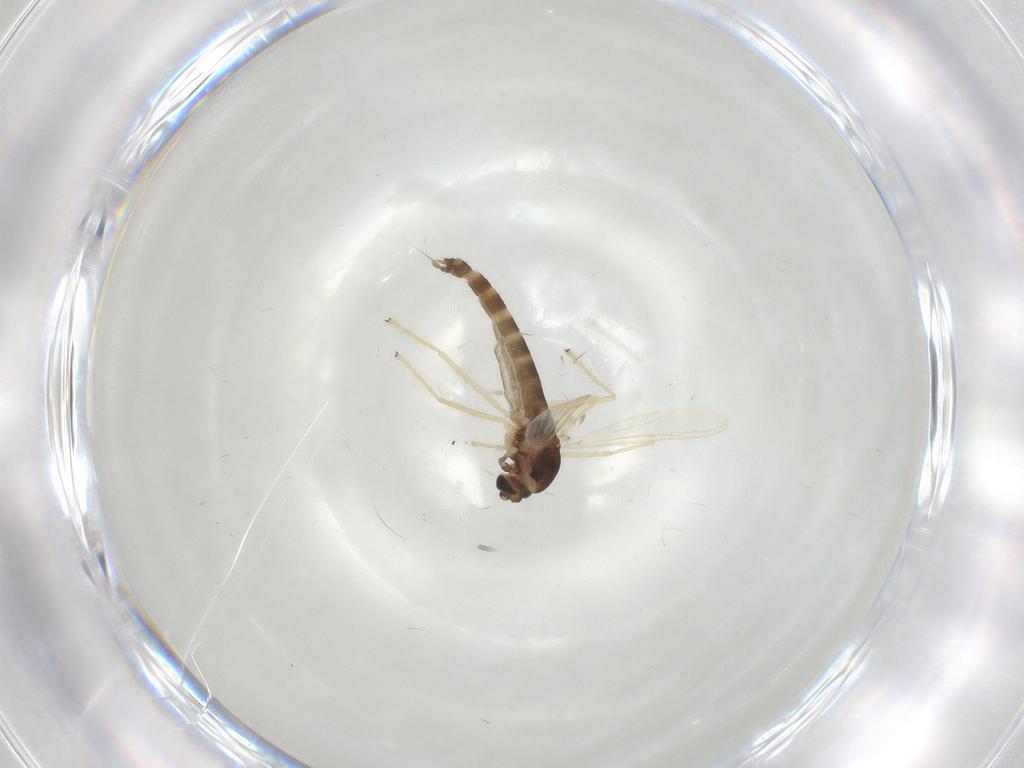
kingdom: Animalia
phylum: Arthropoda
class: Insecta
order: Diptera
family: Chironomidae
